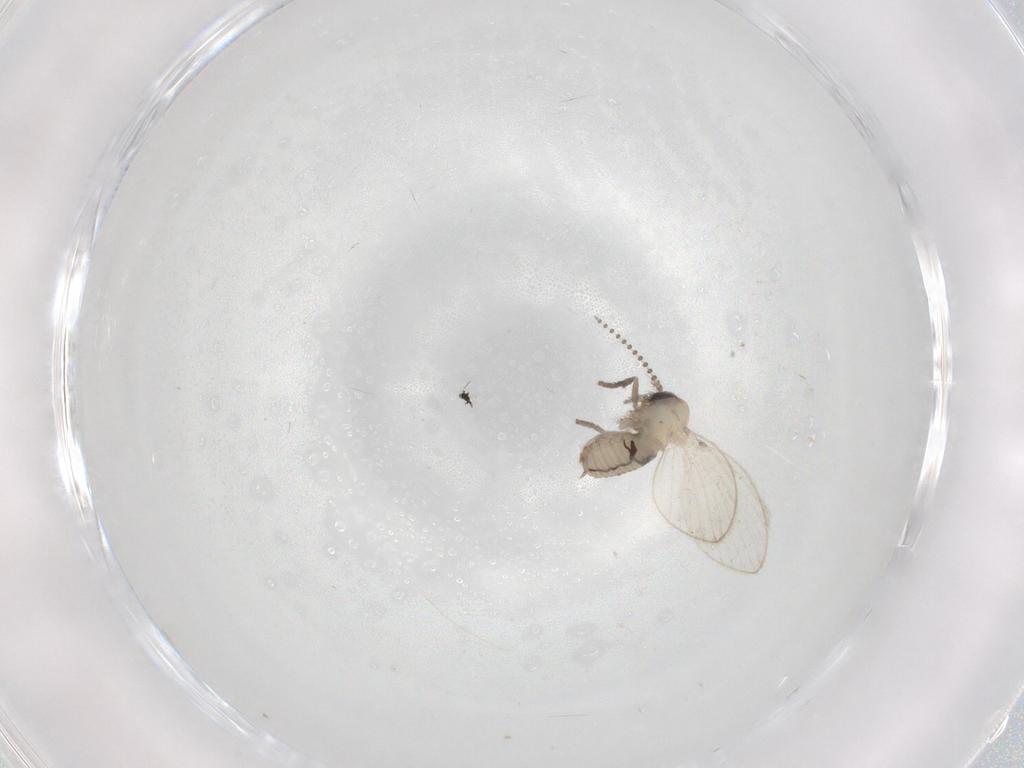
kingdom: Animalia
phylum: Arthropoda
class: Insecta
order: Diptera
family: Psychodidae
